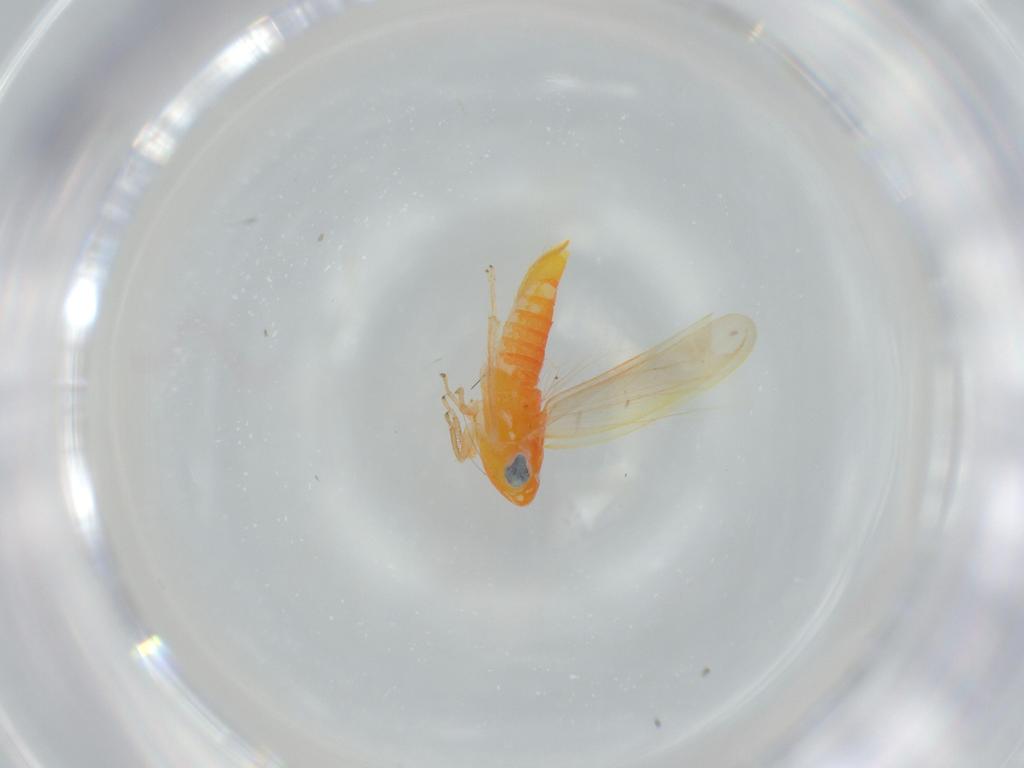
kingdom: Animalia
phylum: Arthropoda
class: Insecta
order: Hemiptera
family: Cicadellidae
